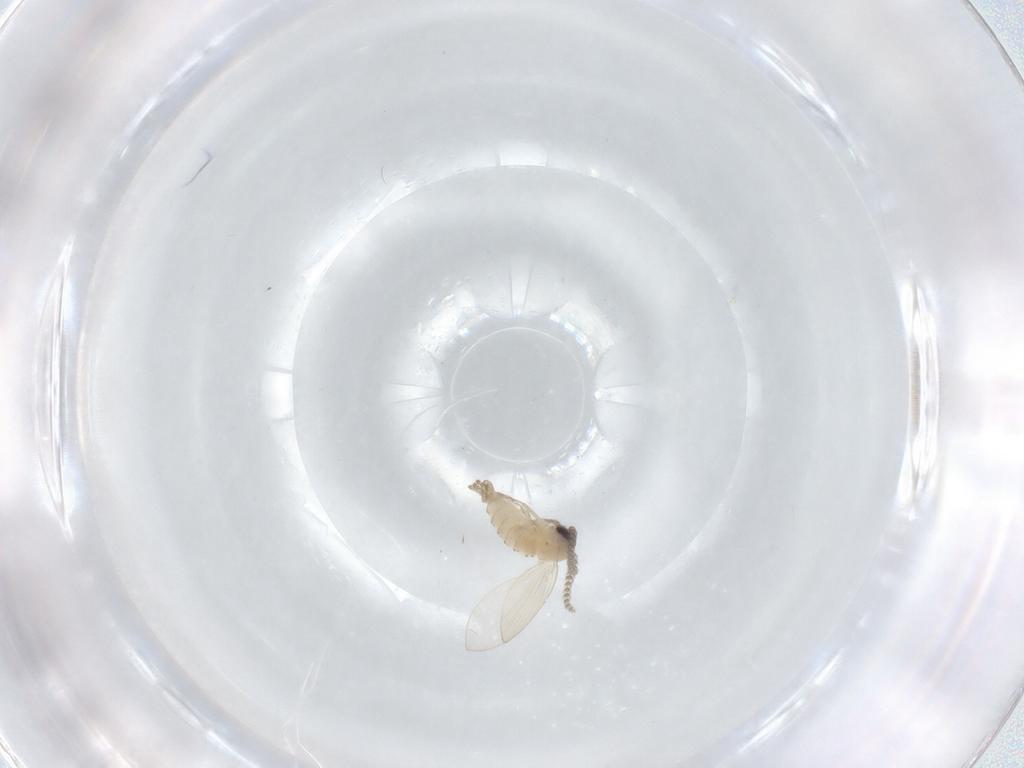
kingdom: Animalia
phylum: Arthropoda
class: Insecta
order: Diptera
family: Psychodidae
